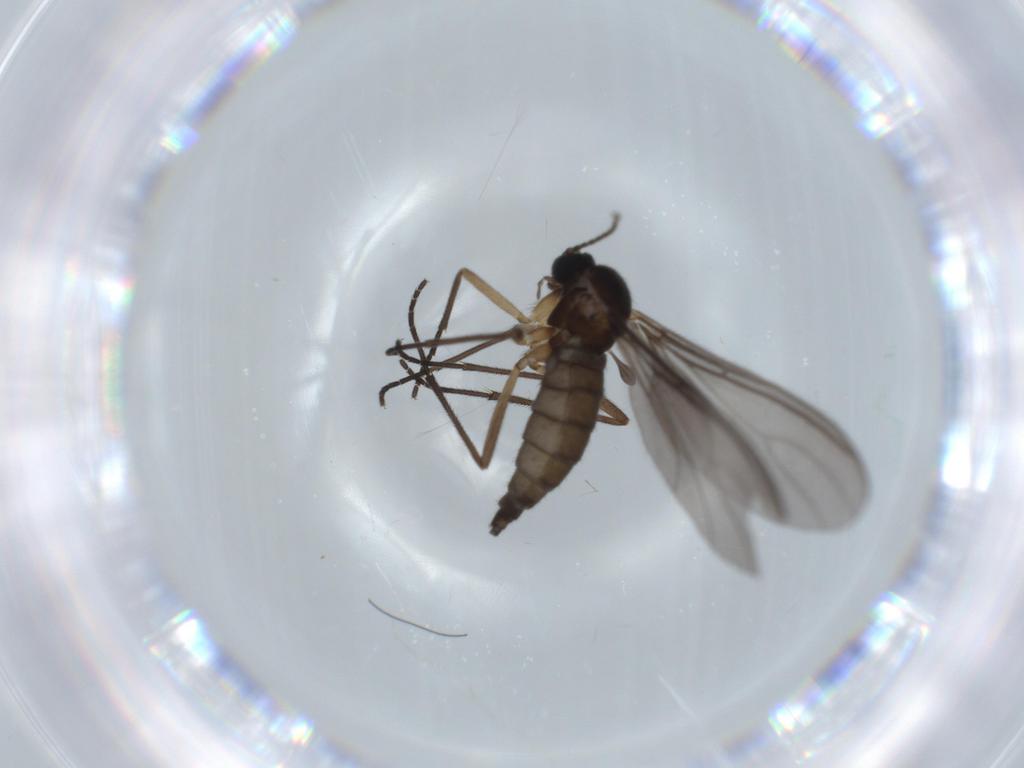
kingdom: Animalia
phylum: Arthropoda
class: Insecta
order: Diptera
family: Sciaridae
